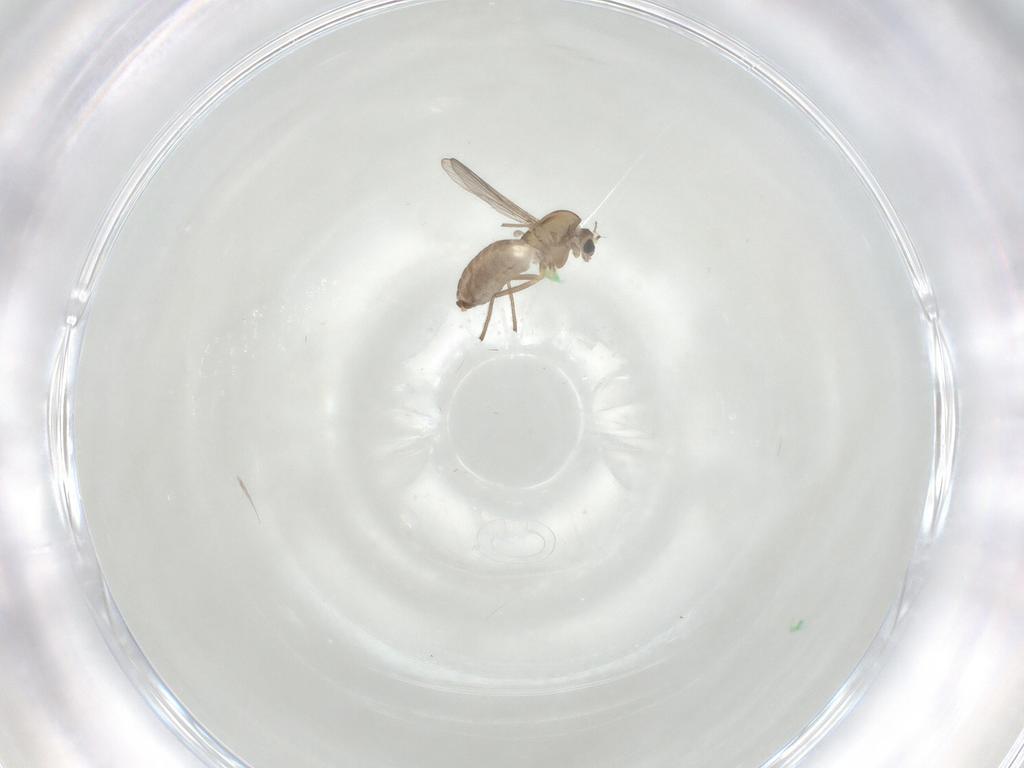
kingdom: Animalia
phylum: Arthropoda
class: Insecta
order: Diptera
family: Chironomidae
